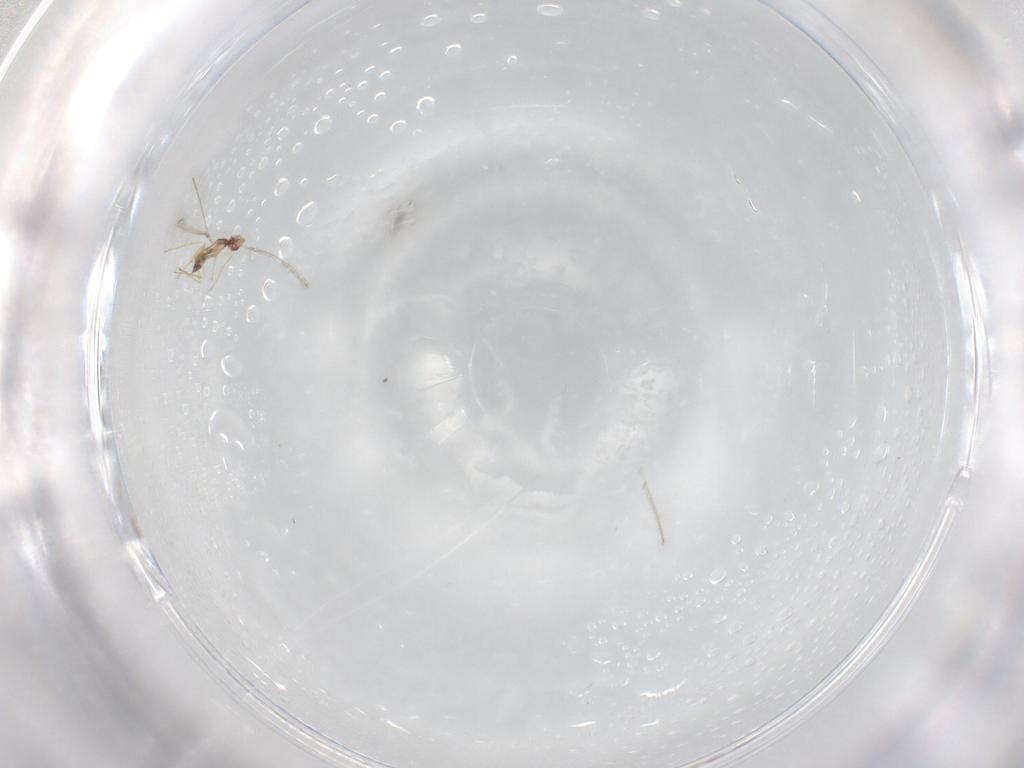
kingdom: Animalia
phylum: Arthropoda
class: Insecta
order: Hymenoptera
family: Eupelmidae
